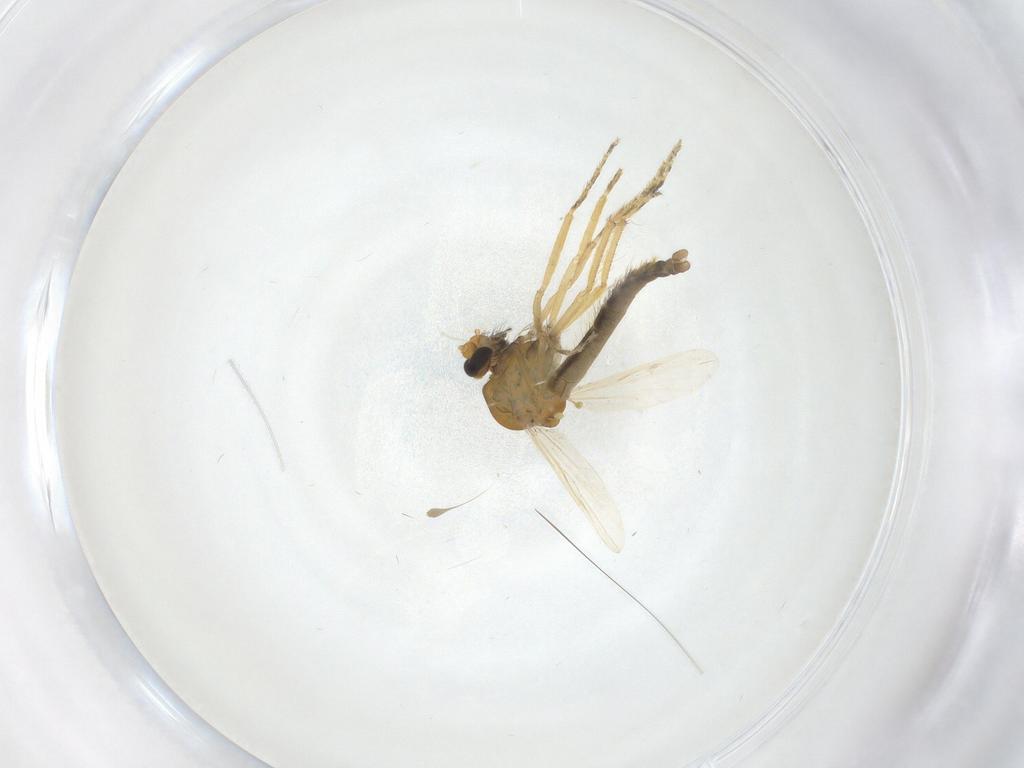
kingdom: Animalia
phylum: Arthropoda
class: Insecta
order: Diptera
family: Ceratopogonidae
